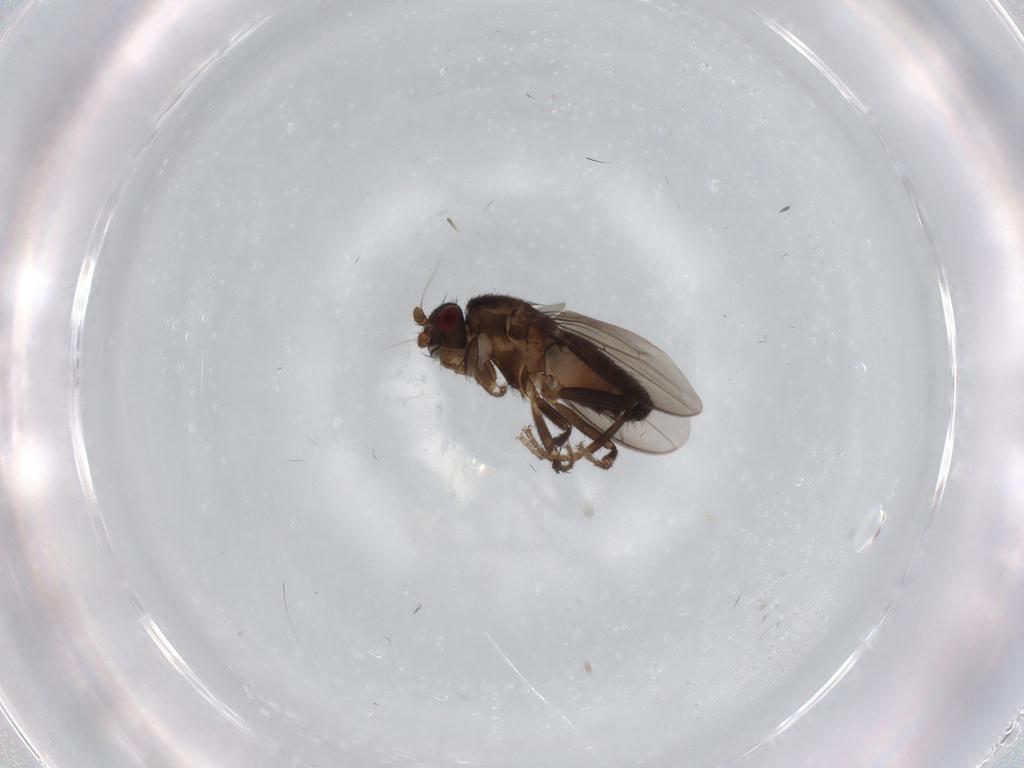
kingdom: Animalia
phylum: Arthropoda
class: Insecta
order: Diptera
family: Sphaeroceridae
